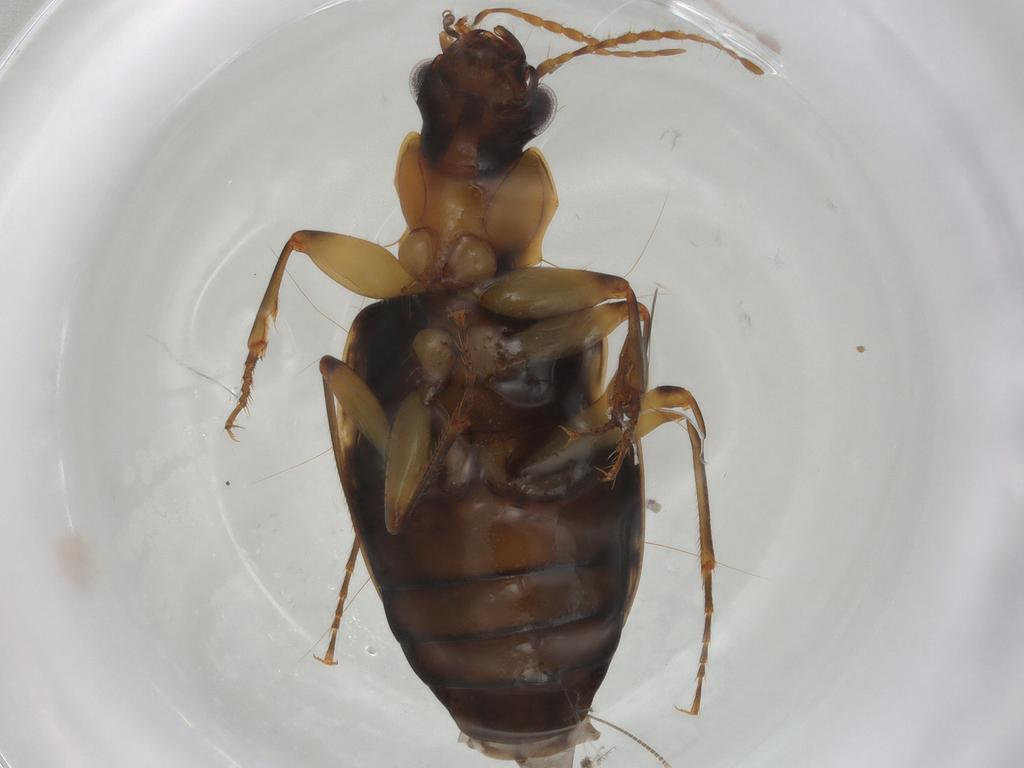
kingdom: Animalia
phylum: Arthropoda
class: Insecta
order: Coleoptera
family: Carabidae
